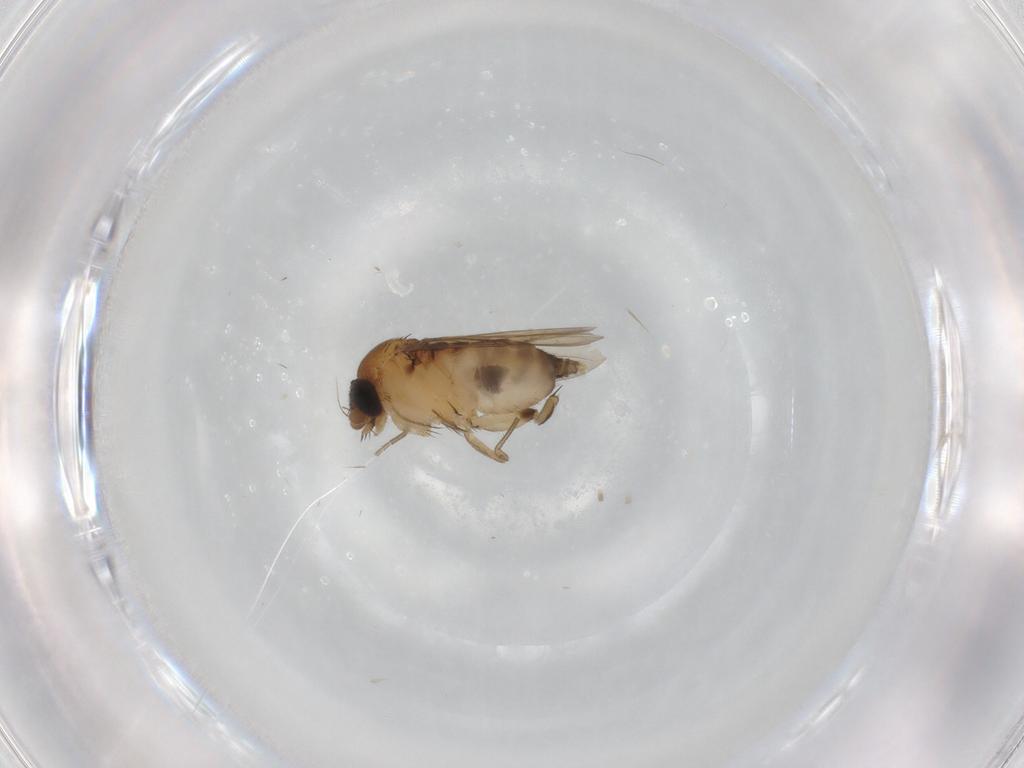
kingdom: Animalia
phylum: Arthropoda
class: Insecta
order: Diptera
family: Phoridae
